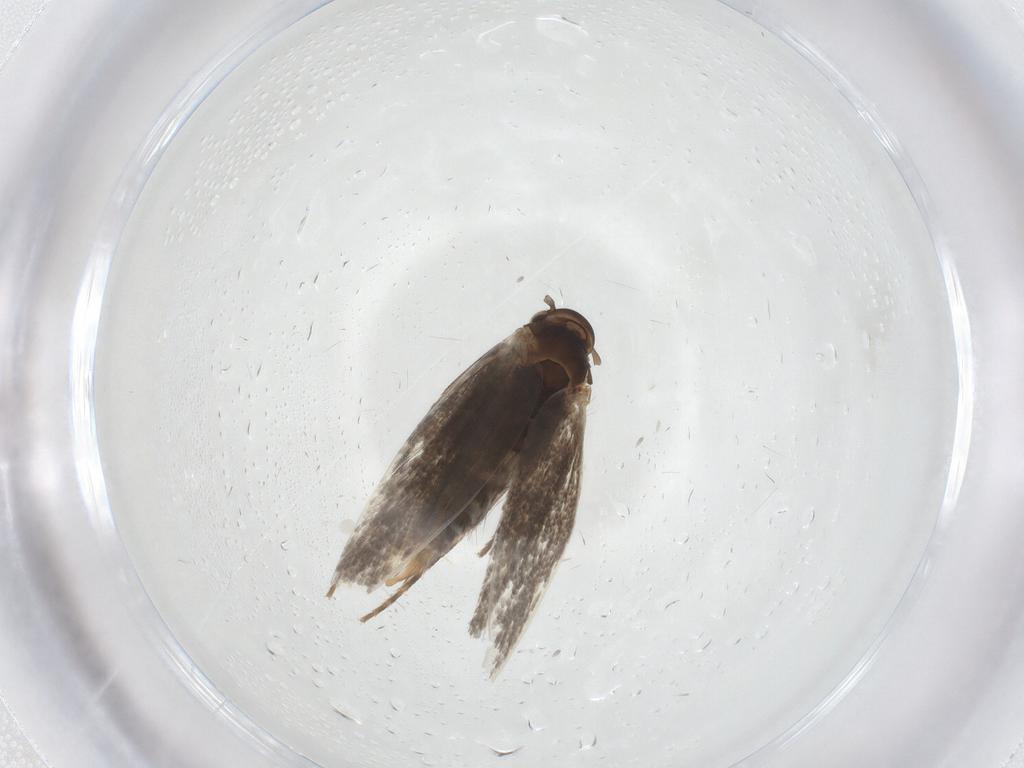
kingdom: Animalia
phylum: Arthropoda
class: Insecta
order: Lepidoptera
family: Elachistidae
